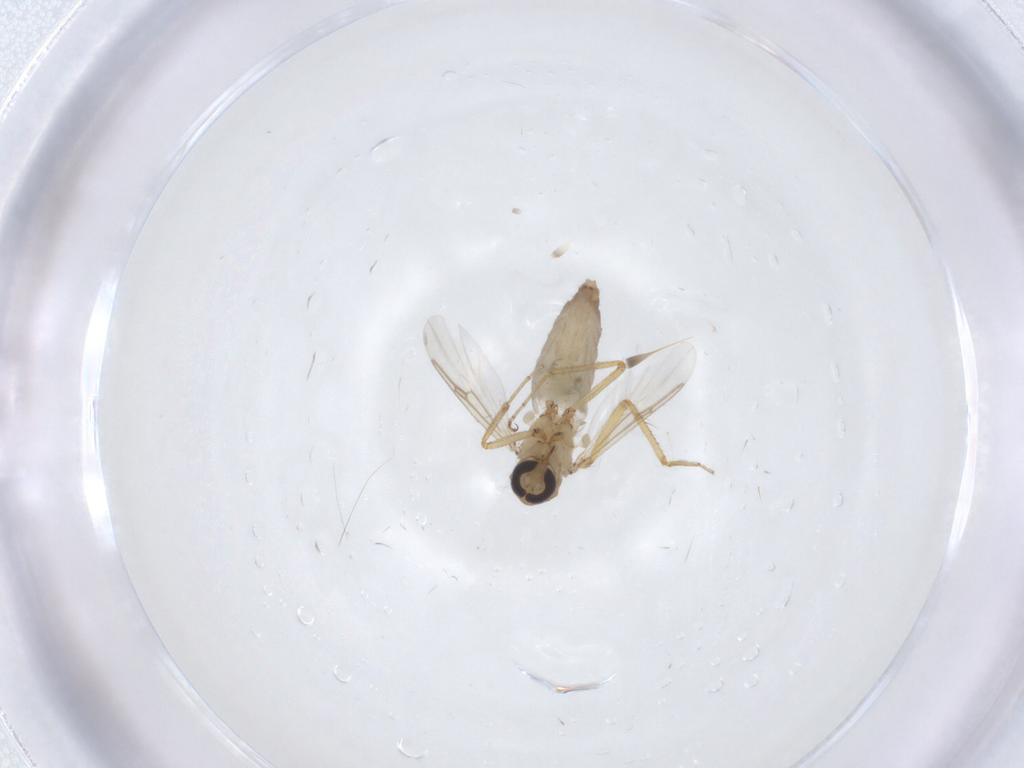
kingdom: Animalia
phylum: Arthropoda
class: Insecta
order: Diptera
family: Ceratopogonidae
